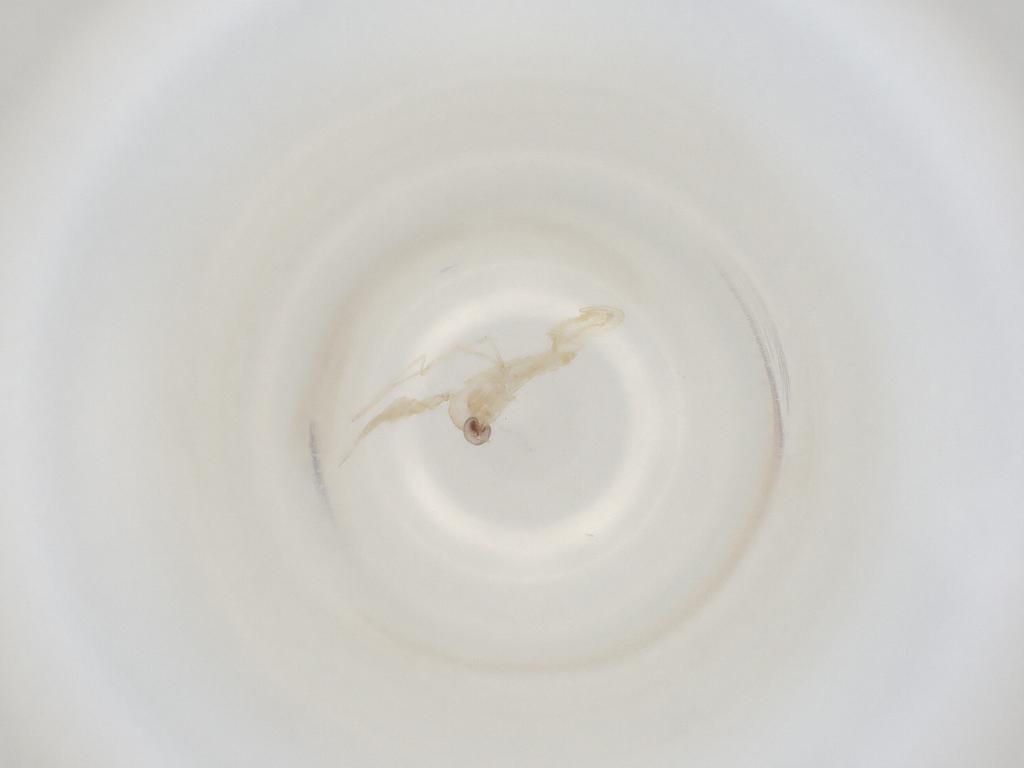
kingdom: Animalia
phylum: Arthropoda
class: Insecta
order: Diptera
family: Cecidomyiidae
